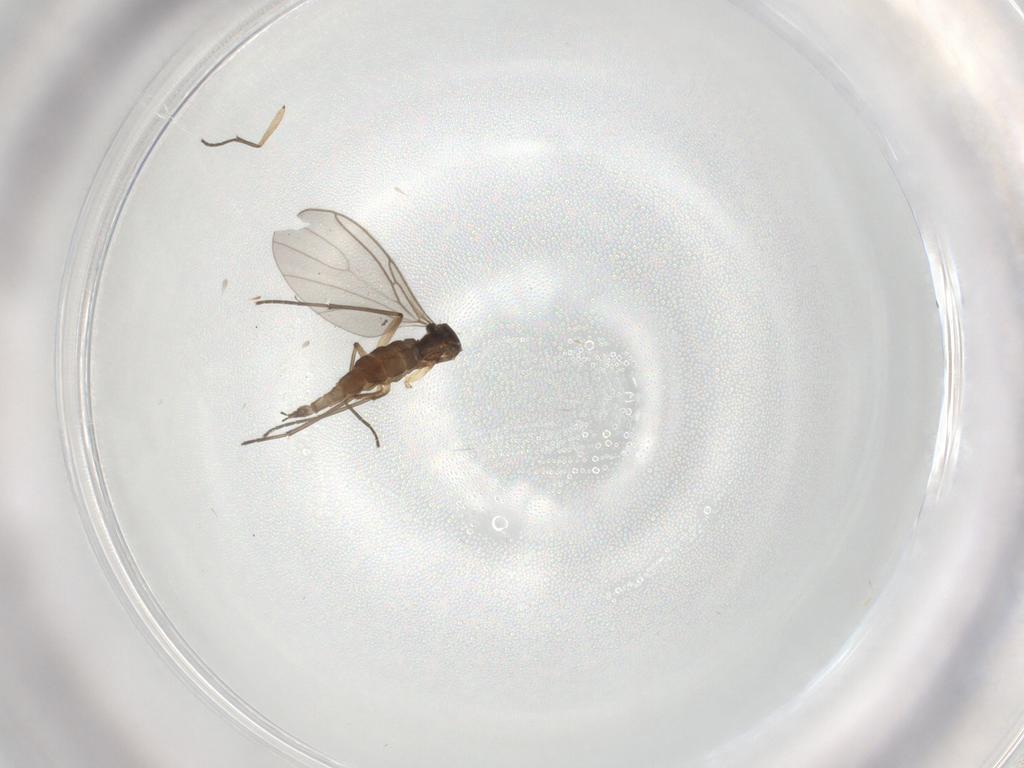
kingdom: Animalia
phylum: Arthropoda
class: Insecta
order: Diptera
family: Sciaridae
